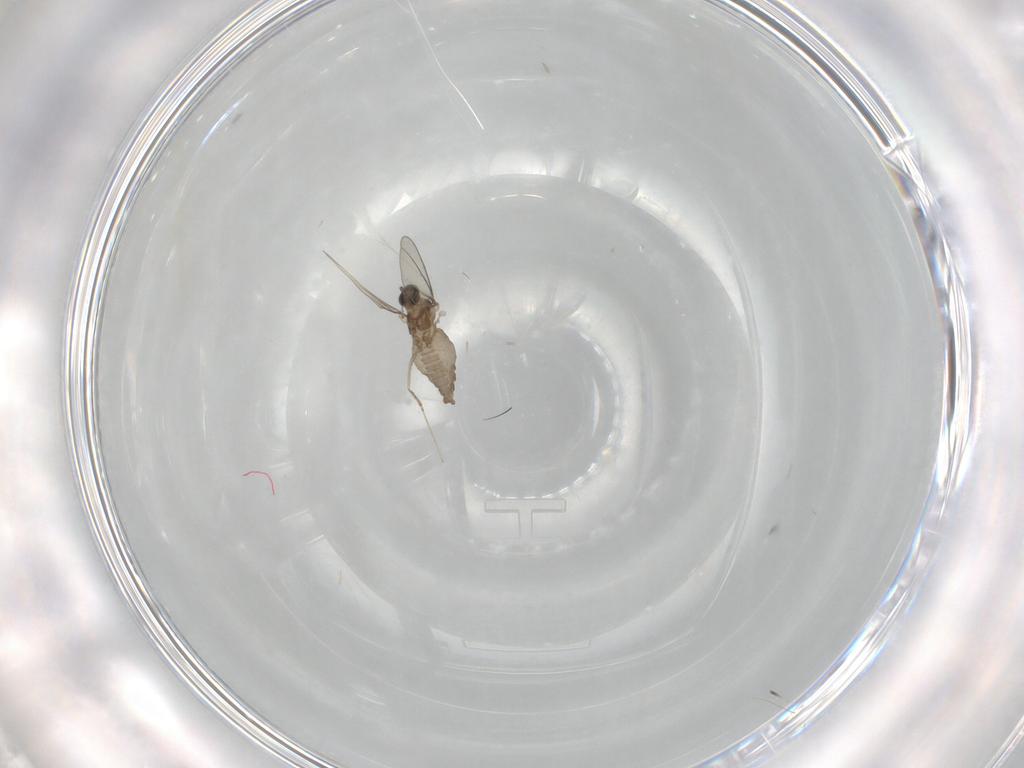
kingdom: Animalia
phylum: Arthropoda
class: Insecta
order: Diptera
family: Cecidomyiidae
